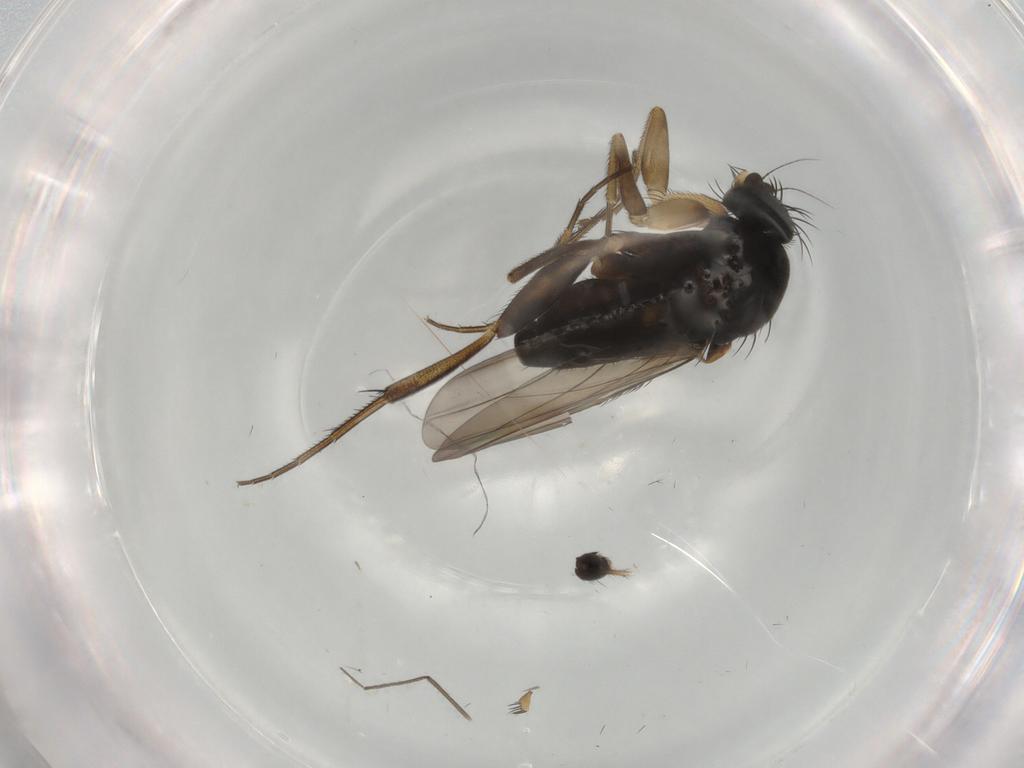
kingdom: Animalia
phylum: Arthropoda
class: Insecta
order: Diptera
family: Phoridae
